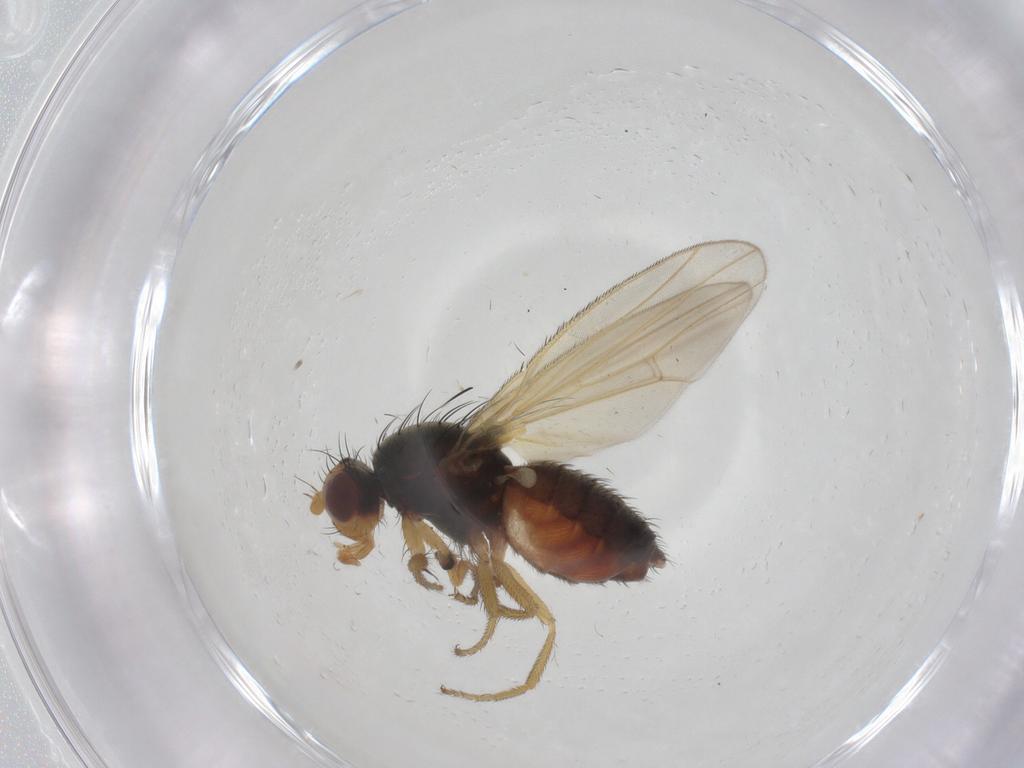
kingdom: Animalia
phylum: Arthropoda
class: Insecta
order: Diptera
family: Heleomyzidae
